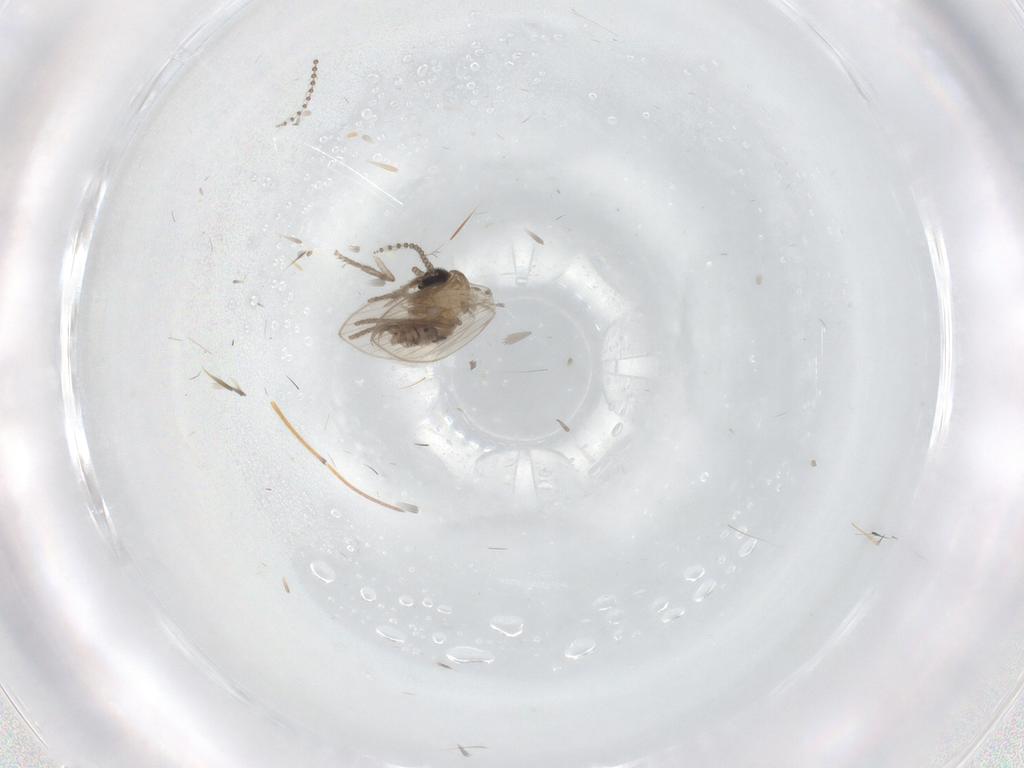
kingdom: Animalia
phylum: Arthropoda
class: Insecta
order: Diptera
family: Psychodidae
